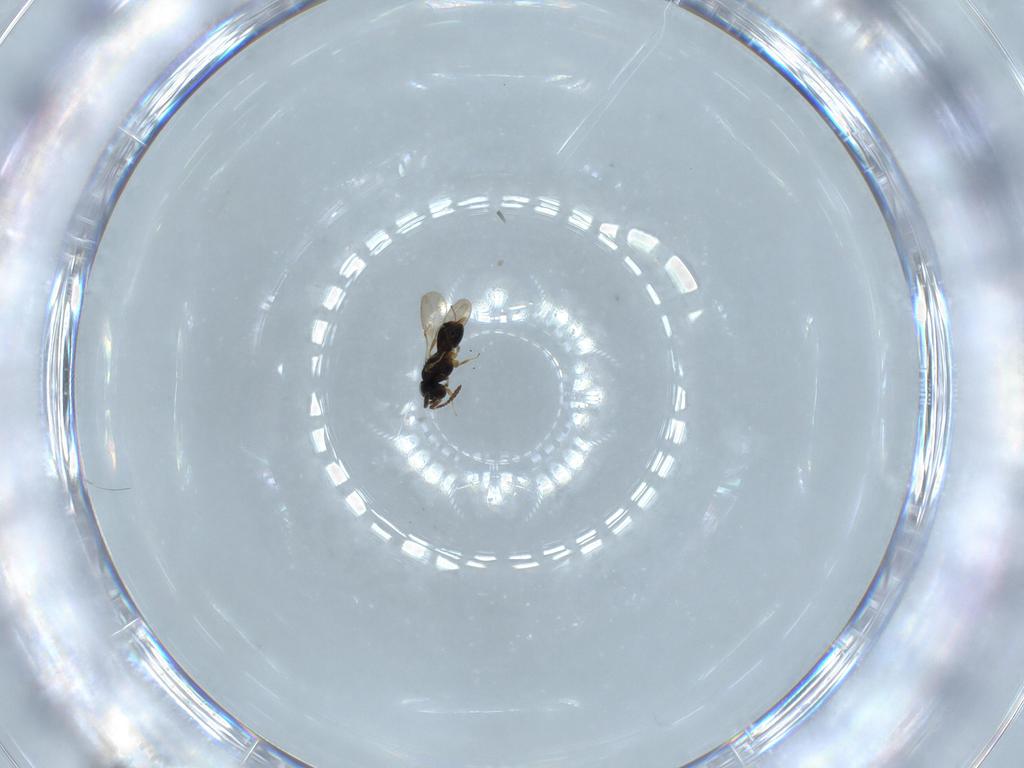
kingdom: Animalia
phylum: Arthropoda
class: Insecta
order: Hymenoptera
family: Scelionidae
